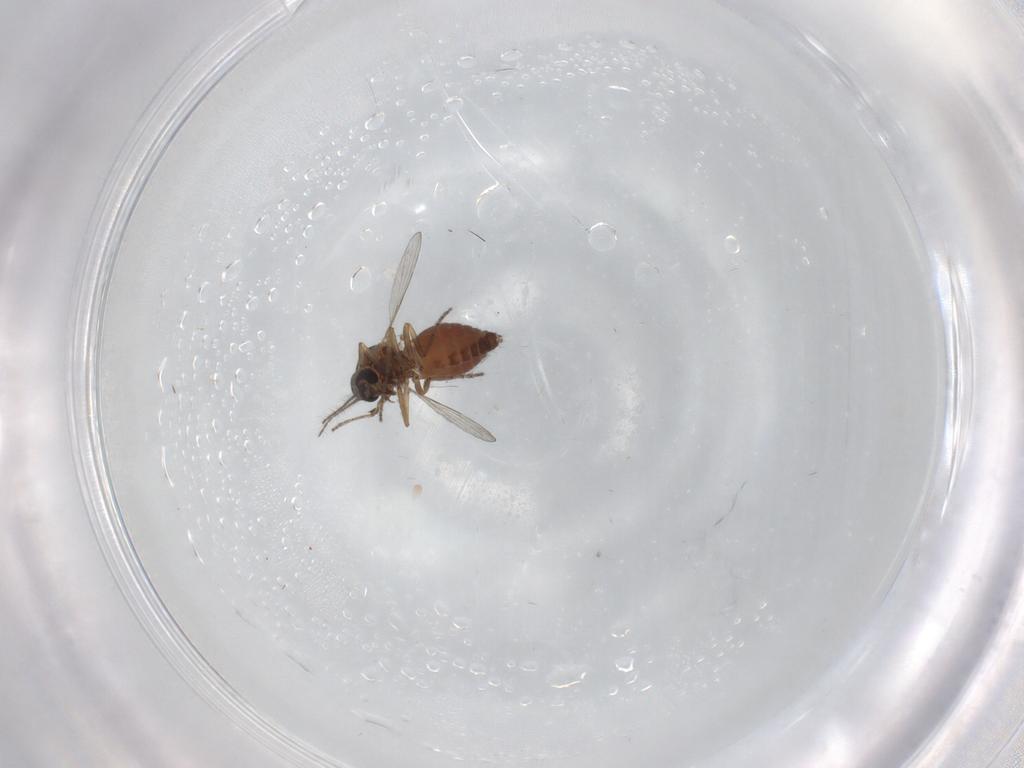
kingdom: Animalia
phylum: Arthropoda
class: Insecta
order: Diptera
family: Ceratopogonidae
